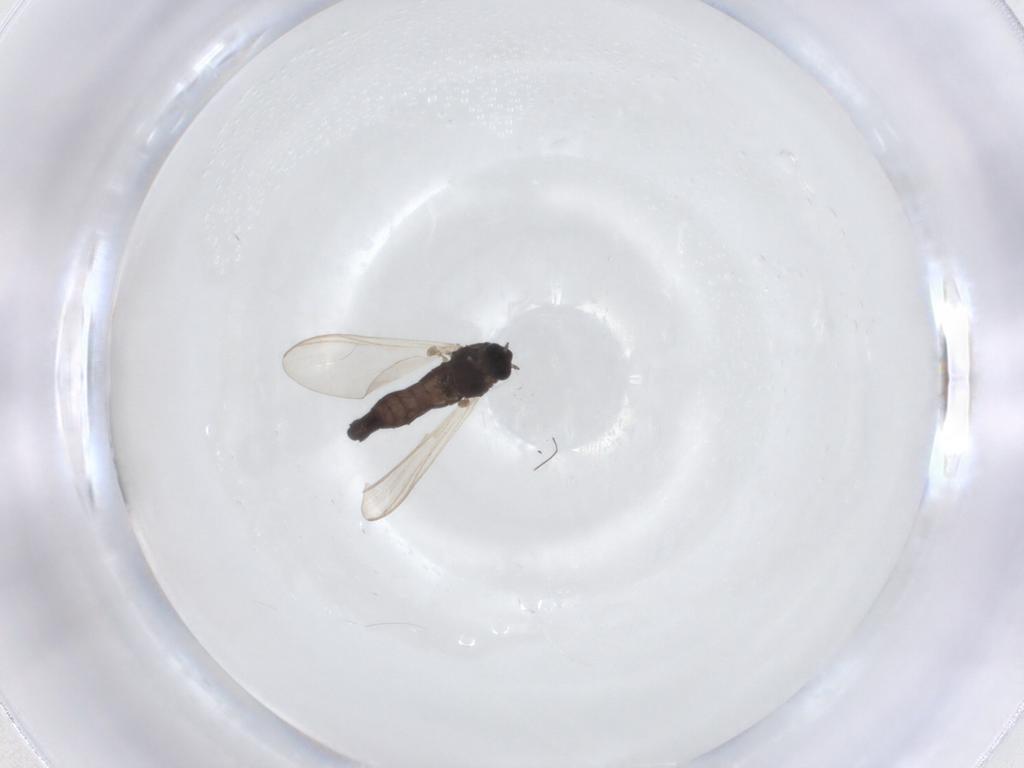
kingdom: Animalia
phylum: Arthropoda
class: Insecta
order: Diptera
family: Chironomidae
